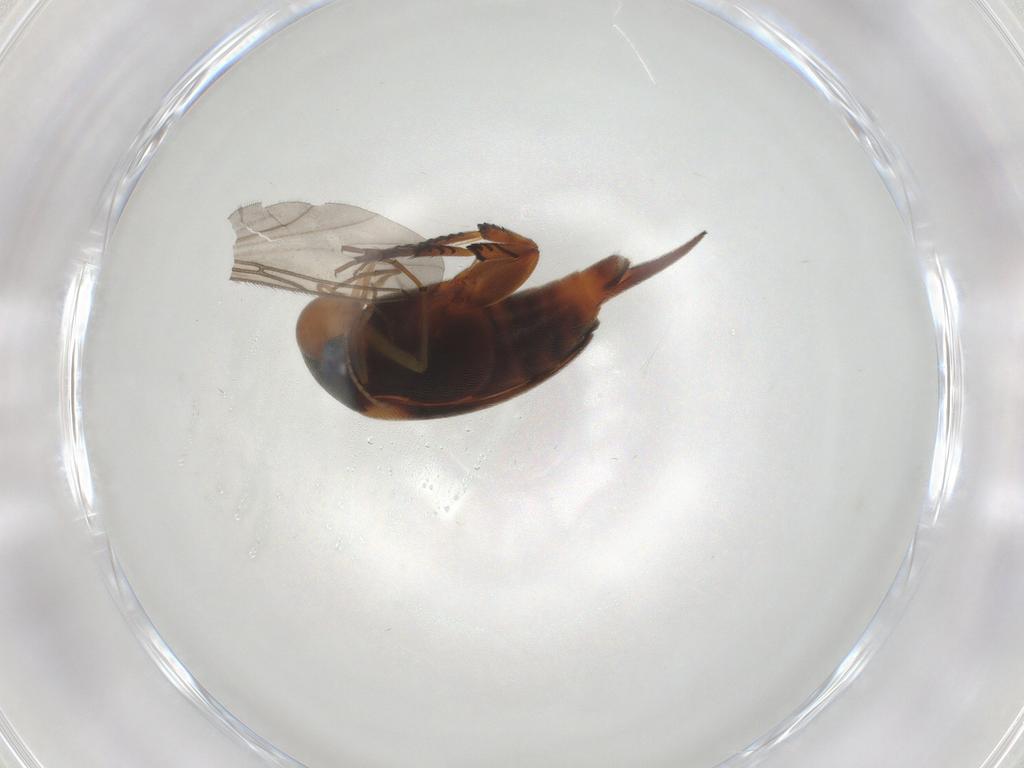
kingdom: Animalia
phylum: Arthropoda
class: Insecta
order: Coleoptera
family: Mordellidae
